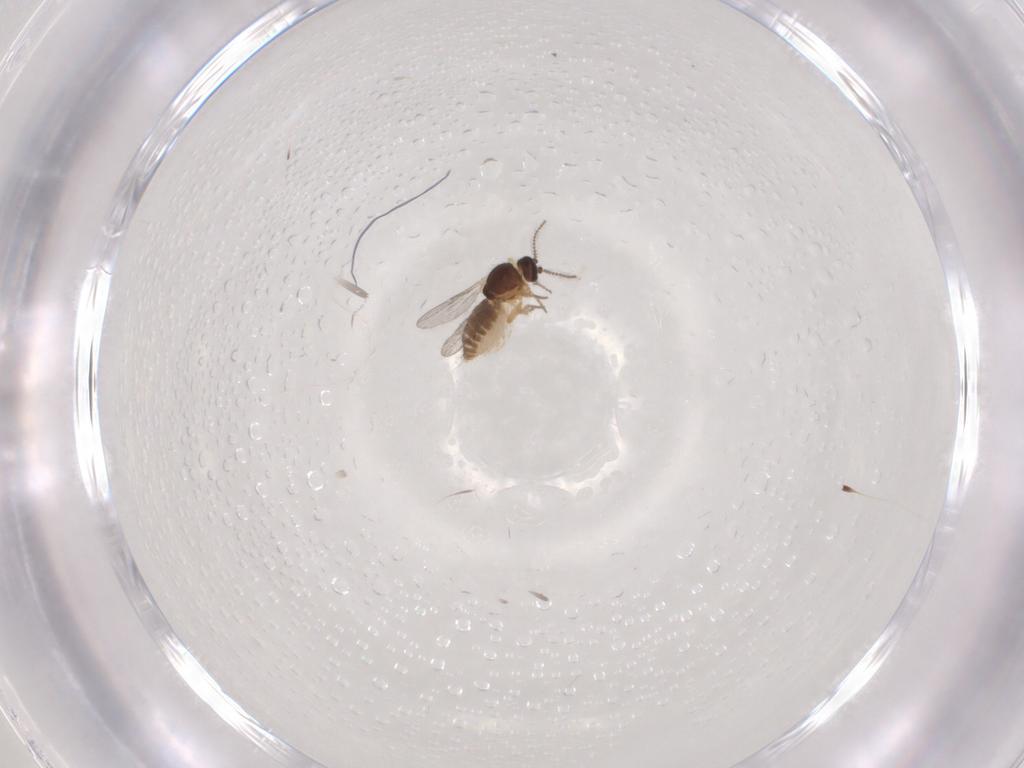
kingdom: Animalia
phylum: Arthropoda
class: Insecta
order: Diptera
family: Ceratopogonidae
